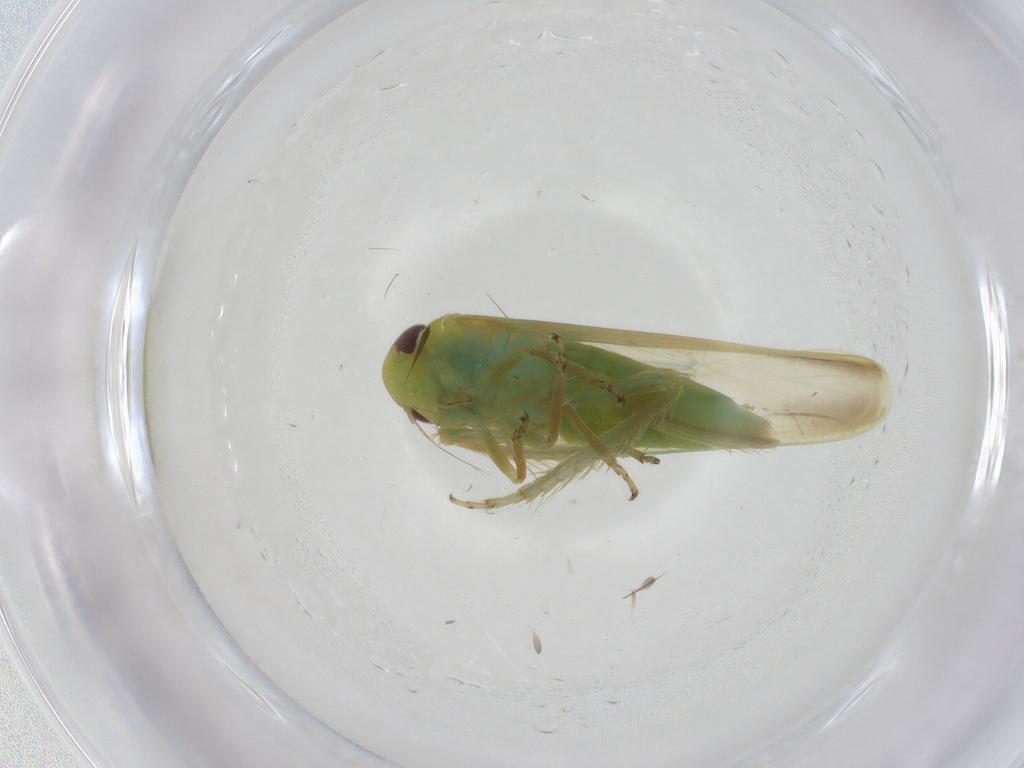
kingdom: Animalia
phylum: Arthropoda
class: Insecta
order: Hemiptera
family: Cicadellidae
